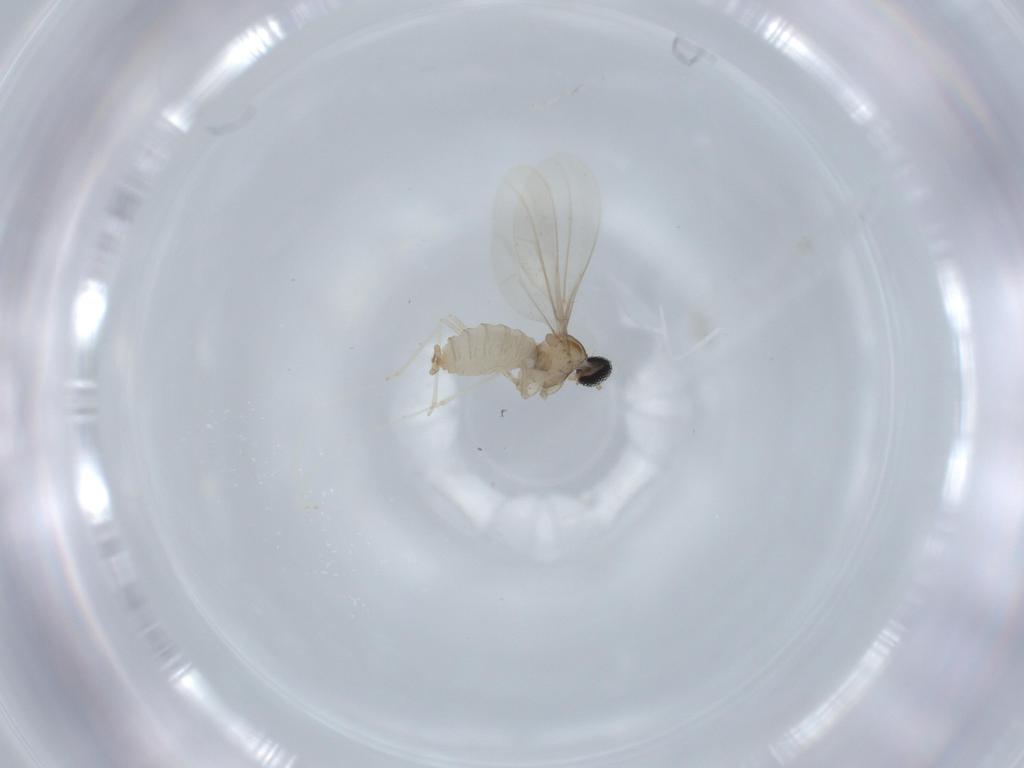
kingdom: Animalia
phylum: Arthropoda
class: Insecta
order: Diptera
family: Cecidomyiidae
